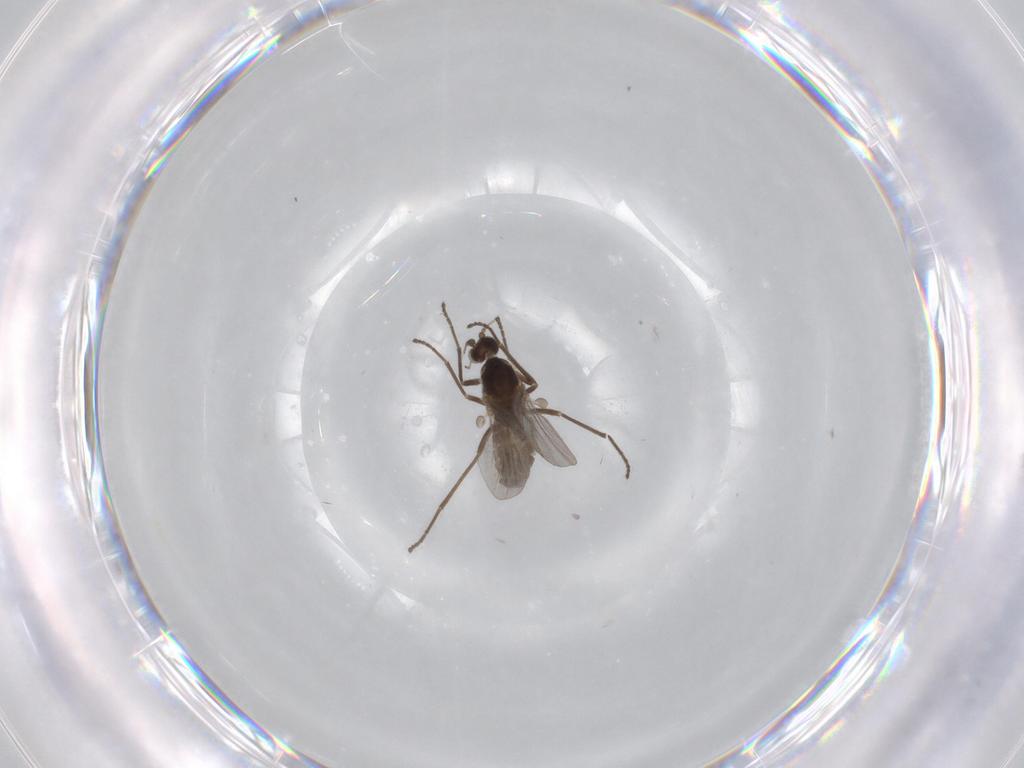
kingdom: Animalia
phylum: Arthropoda
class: Insecta
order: Diptera
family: Cecidomyiidae
